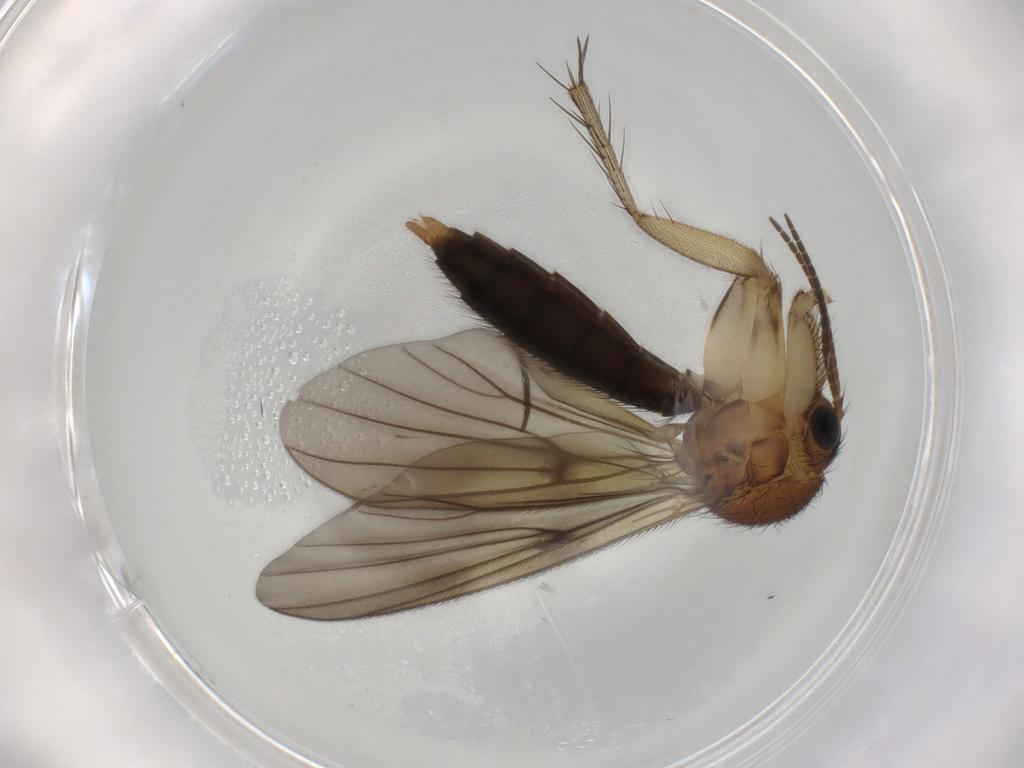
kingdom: Animalia
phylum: Arthropoda
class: Insecta
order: Diptera
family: Mycetophilidae
